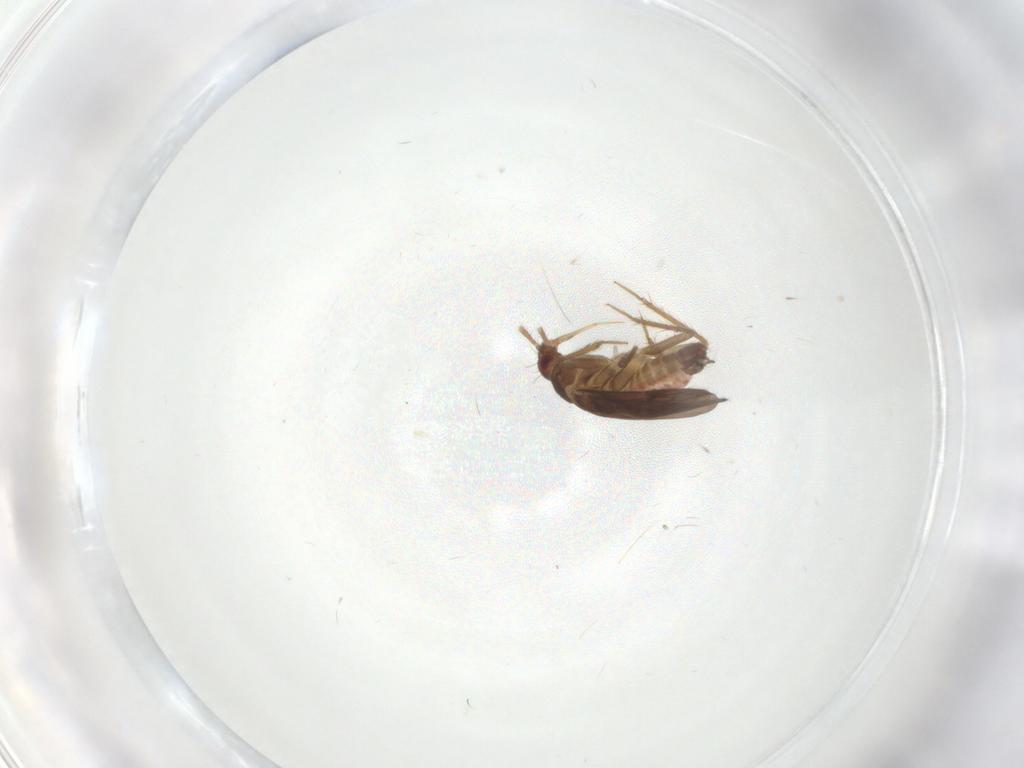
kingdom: Animalia
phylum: Arthropoda
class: Insecta
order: Hemiptera
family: Ceratocombidae
